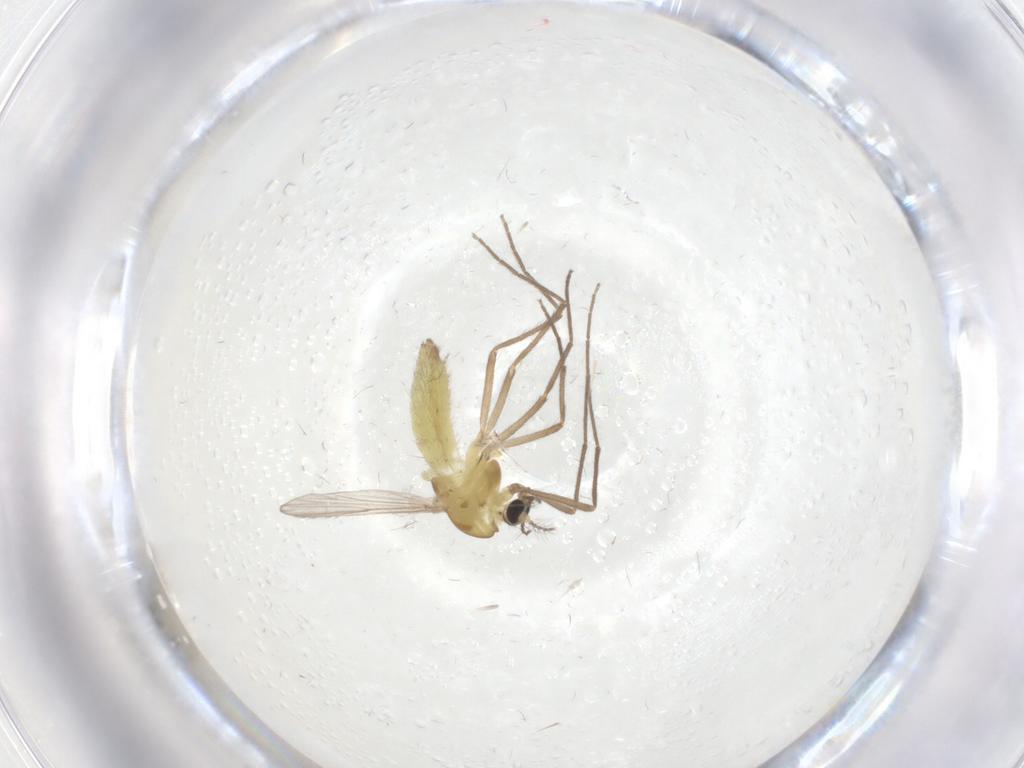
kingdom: Animalia
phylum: Arthropoda
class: Insecta
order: Diptera
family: Chironomidae
